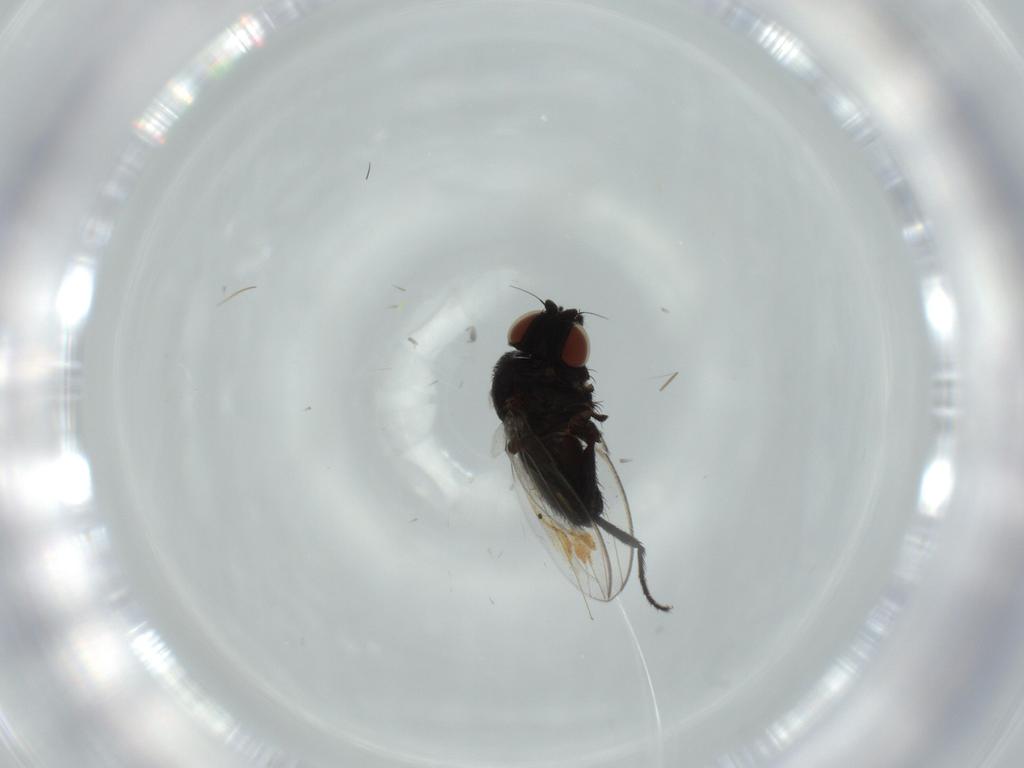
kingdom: Animalia
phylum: Arthropoda
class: Insecta
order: Diptera
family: Milichiidae
